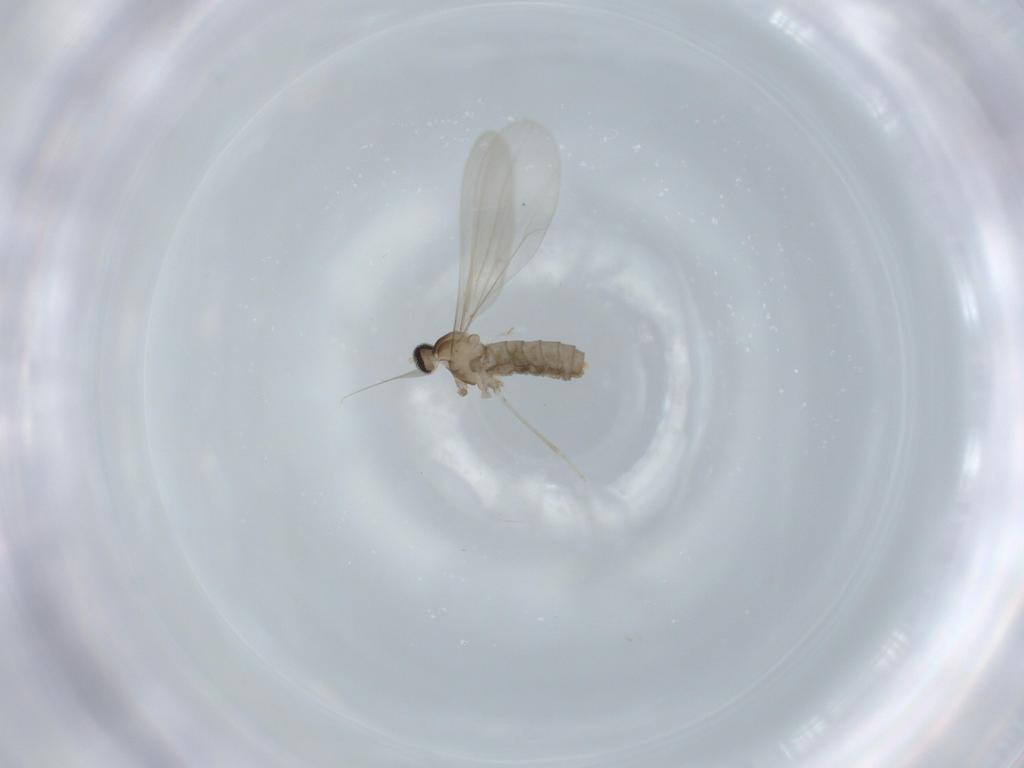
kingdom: Animalia
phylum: Arthropoda
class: Insecta
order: Diptera
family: Cecidomyiidae
